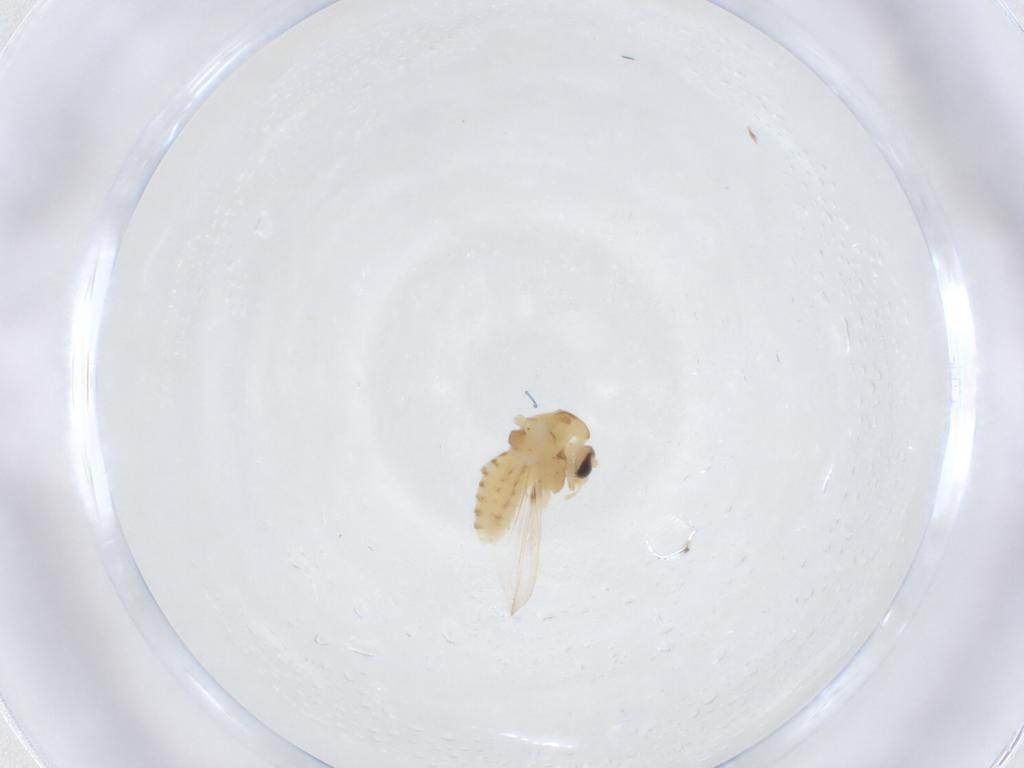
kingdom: Animalia
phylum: Arthropoda
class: Insecta
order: Diptera
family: Chironomidae
